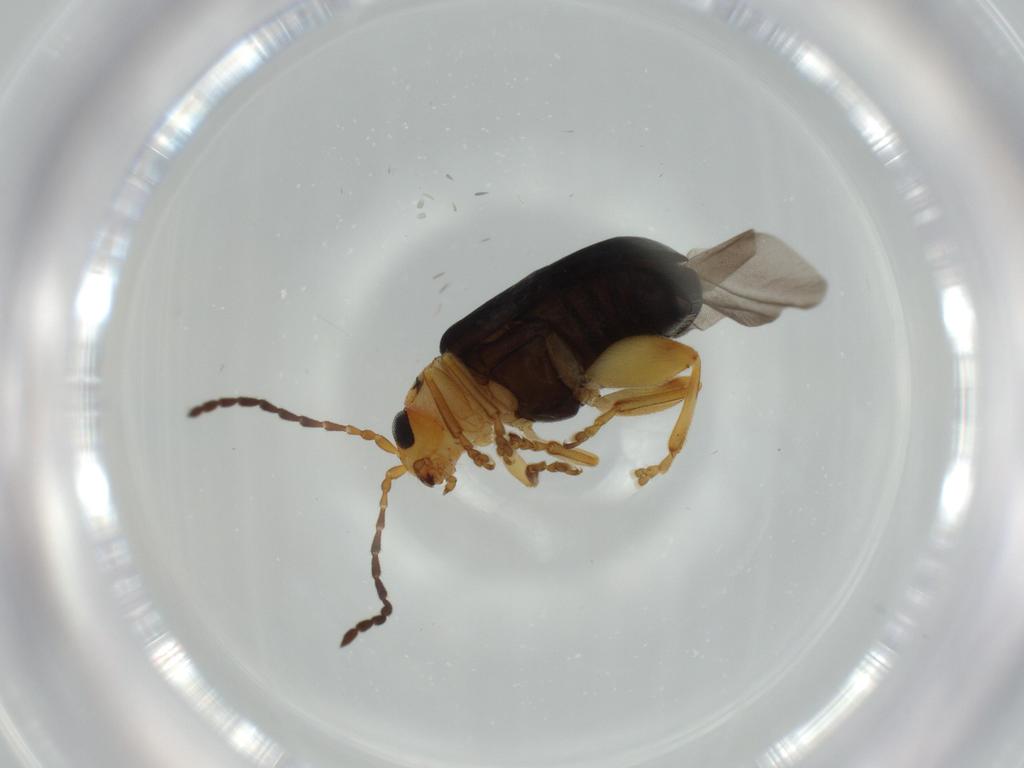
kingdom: Animalia
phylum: Arthropoda
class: Insecta
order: Coleoptera
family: Chrysomelidae
